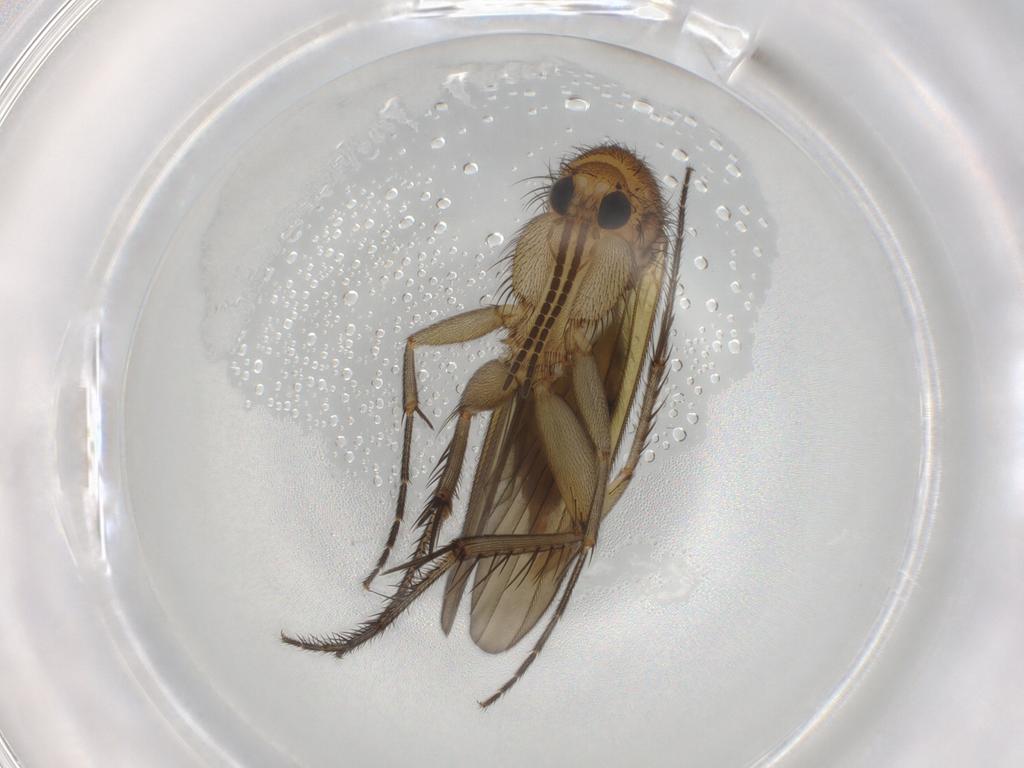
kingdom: Animalia
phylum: Arthropoda
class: Insecta
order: Diptera
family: Mycetophilidae
